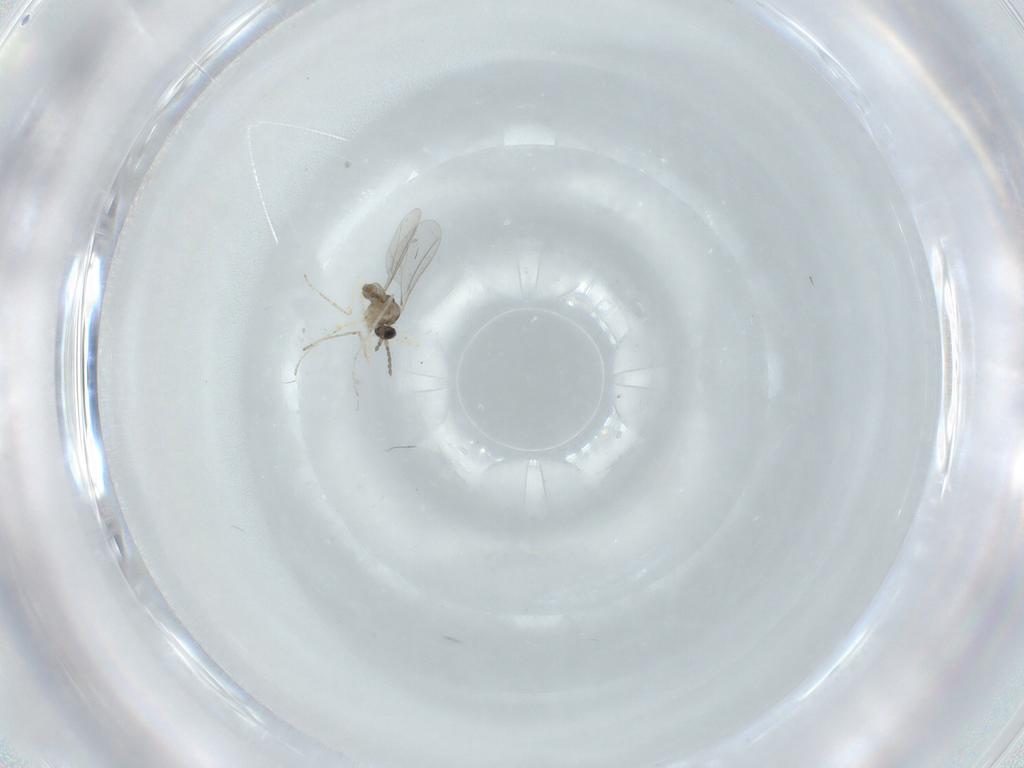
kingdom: Animalia
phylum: Arthropoda
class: Insecta
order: Diptera
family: Cecidomyiidae
